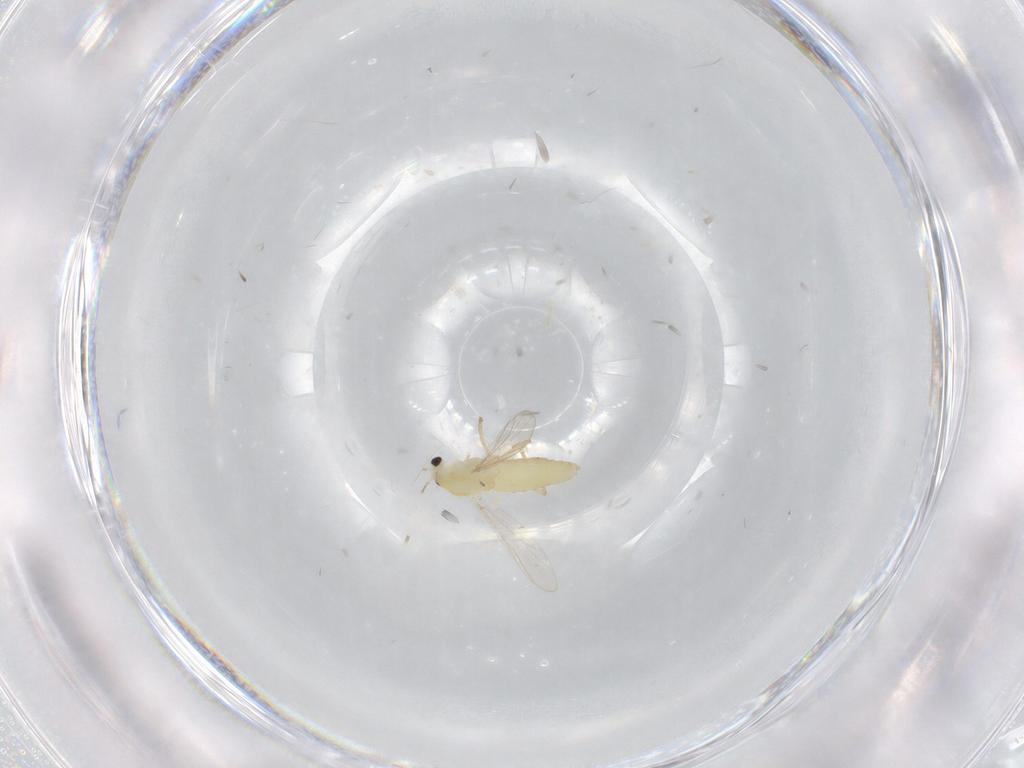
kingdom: Animalia
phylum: Arthropoda
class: Insecta
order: Diptera
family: Chironomidae
